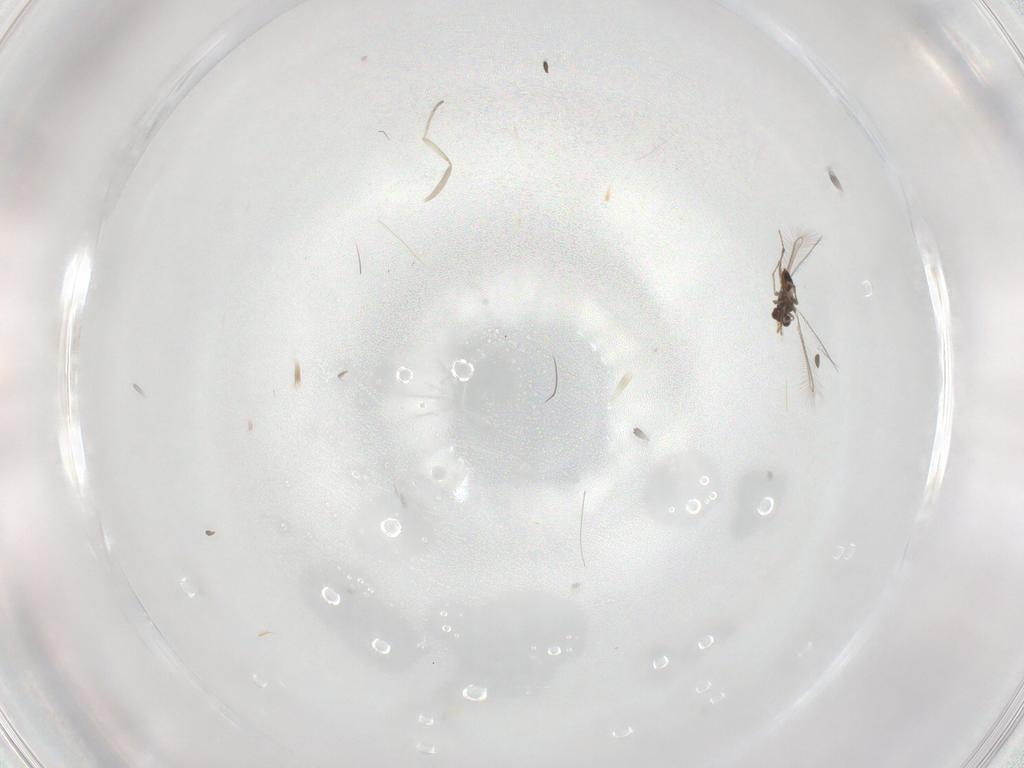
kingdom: Animalia
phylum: Arthropoda
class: Insecta
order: Hymenoptera
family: Mymaridae
